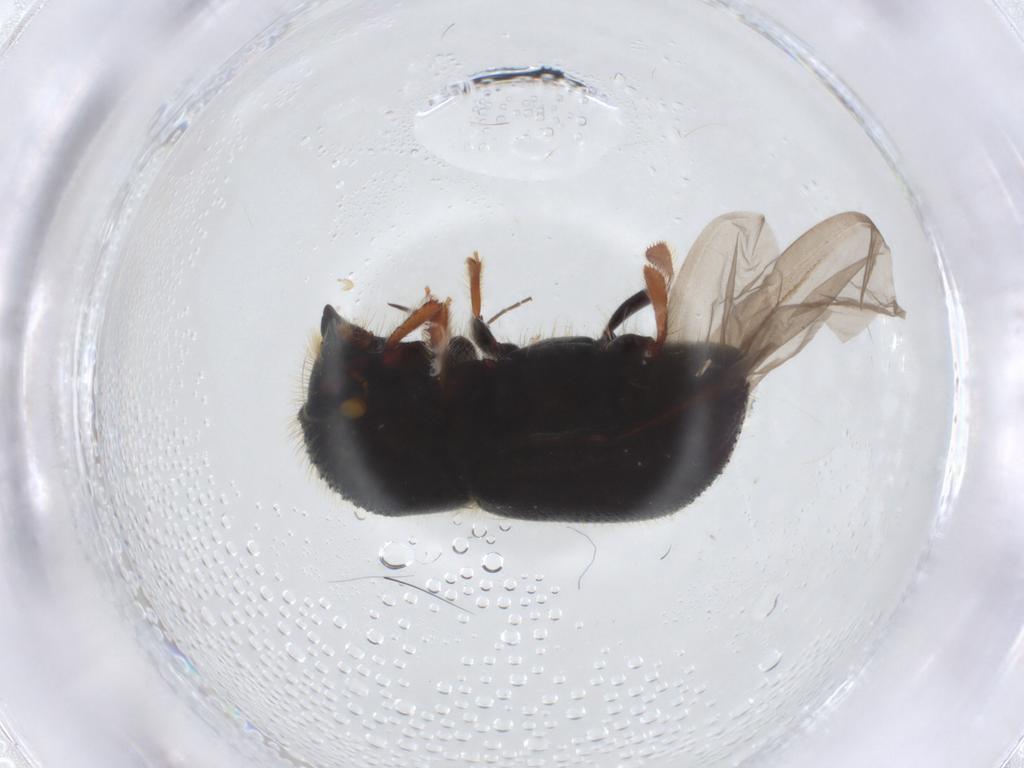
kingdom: Animalia
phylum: Arthropoda
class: Insecta
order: Coleoptera
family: Curculionidae
